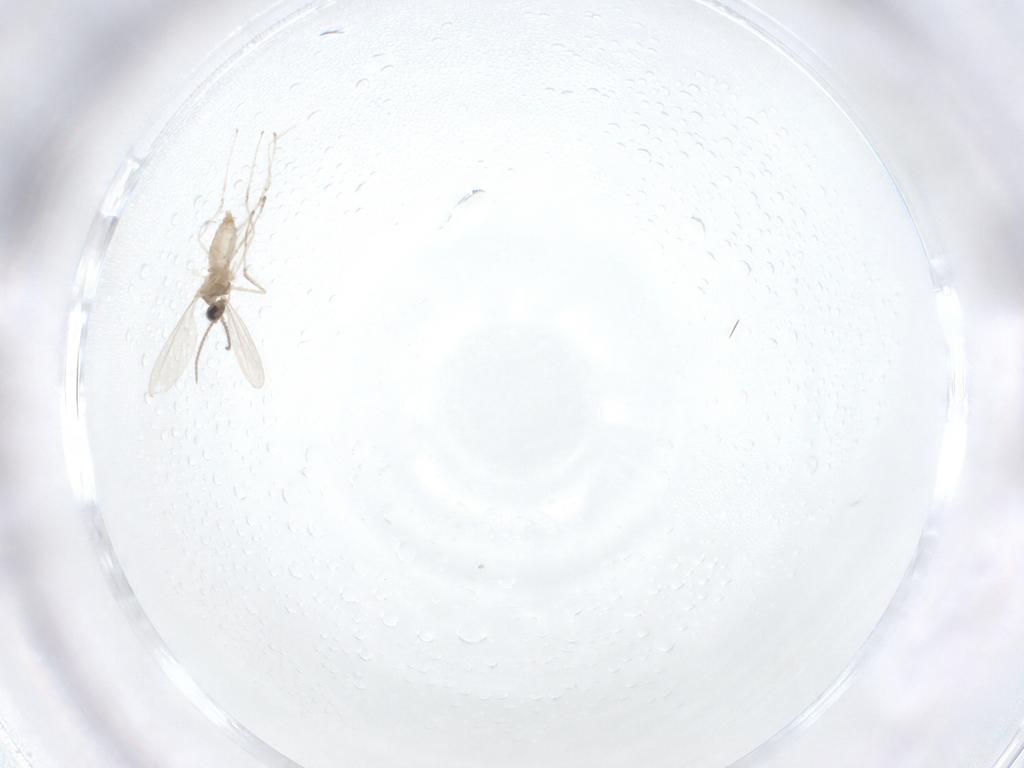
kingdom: Animalia
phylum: Arthropoda
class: Insecta
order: Diptera
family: Cecidomyiidae
